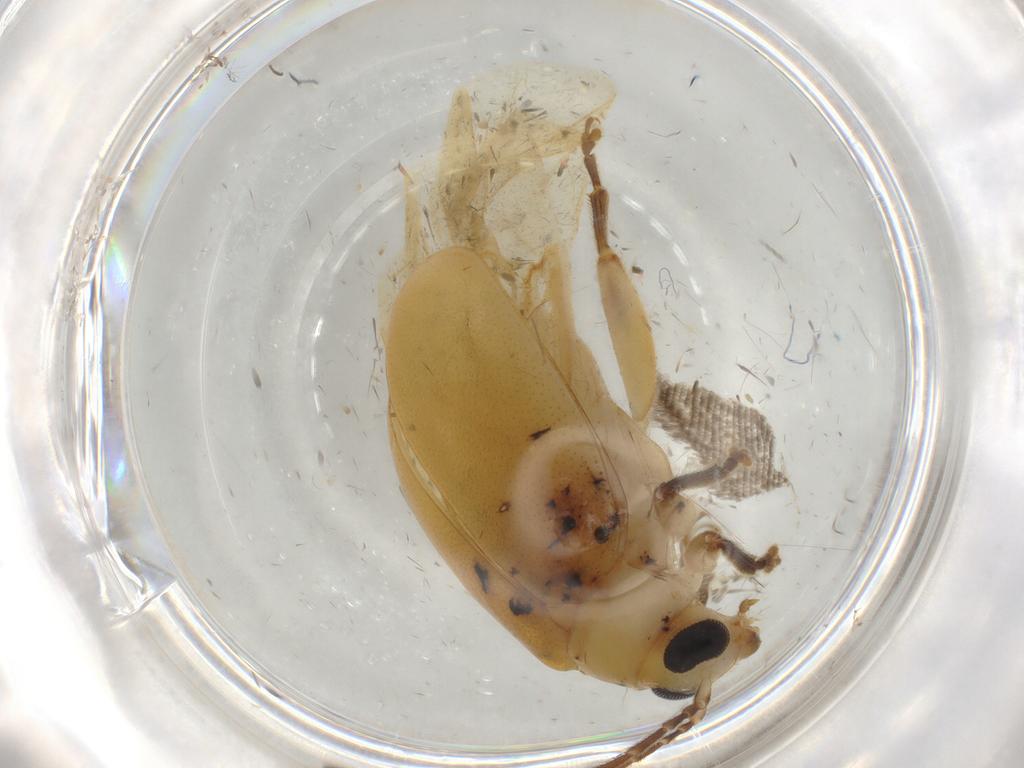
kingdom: Animalia
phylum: Arthropoda
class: Insecta
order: Coleoptera
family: Chrysomelidae
